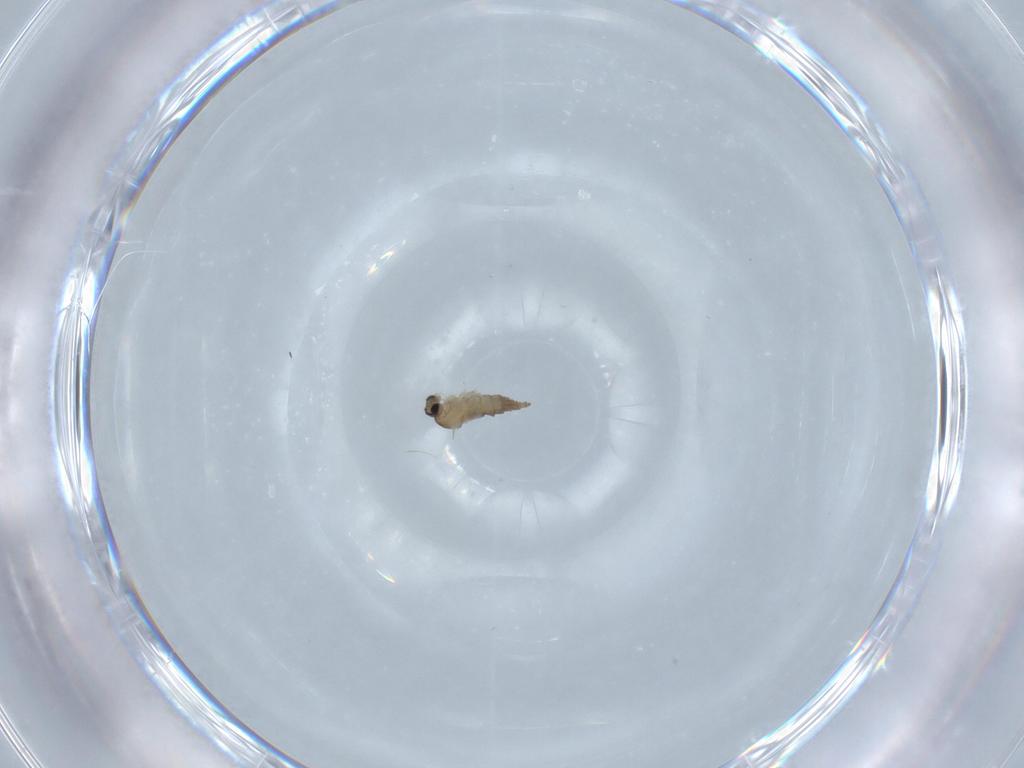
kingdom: Animalia
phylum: Arthropoda
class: Insecta
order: Diptera
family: Cecidomyiidae
